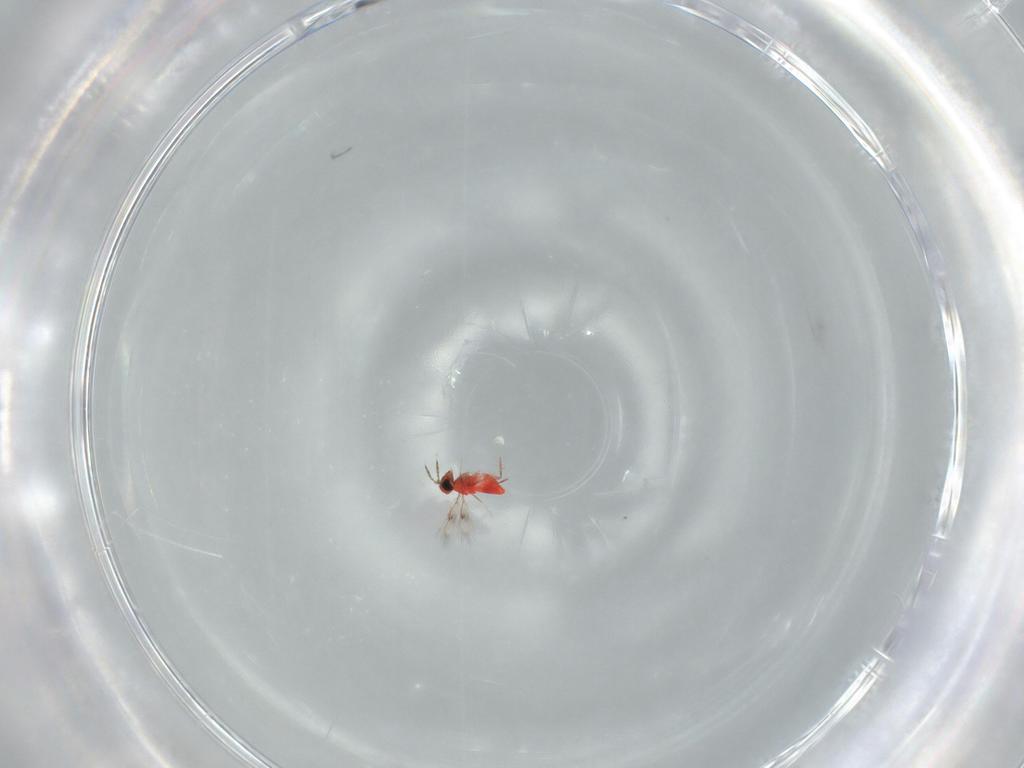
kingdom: Animalia
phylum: Arthropoda
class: Insecta
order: Hymenoptera
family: Trichogrammatidae
